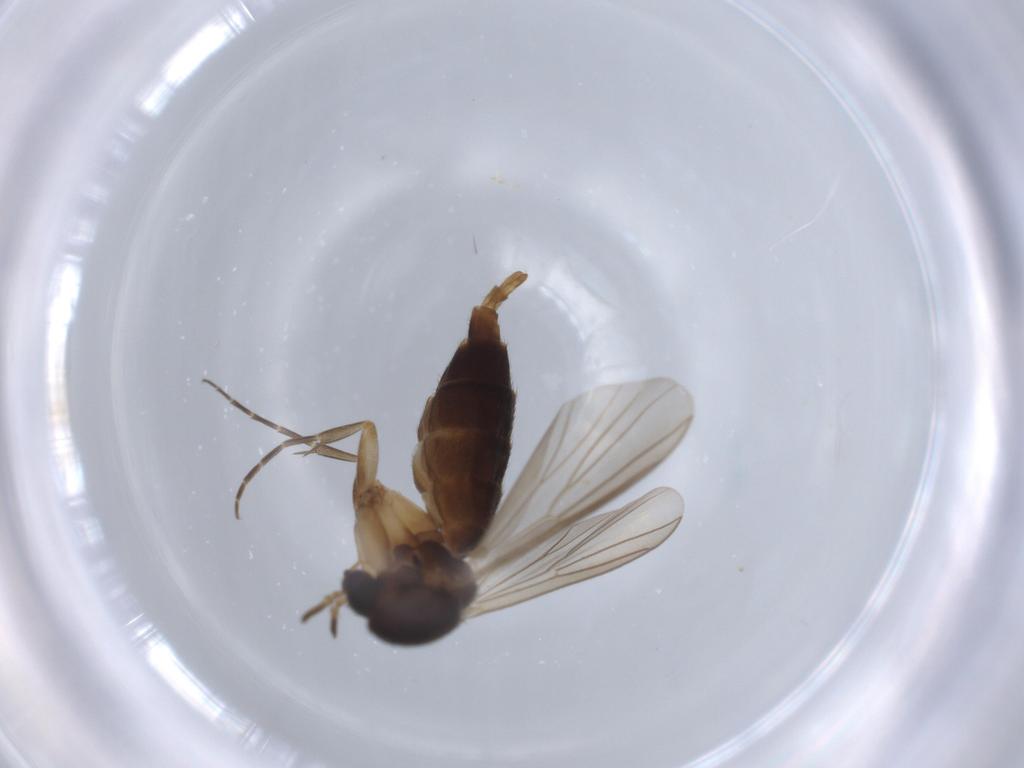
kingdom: Animalia
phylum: Arthropoda
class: Insecta
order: Diptera
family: Mycetophilidae
